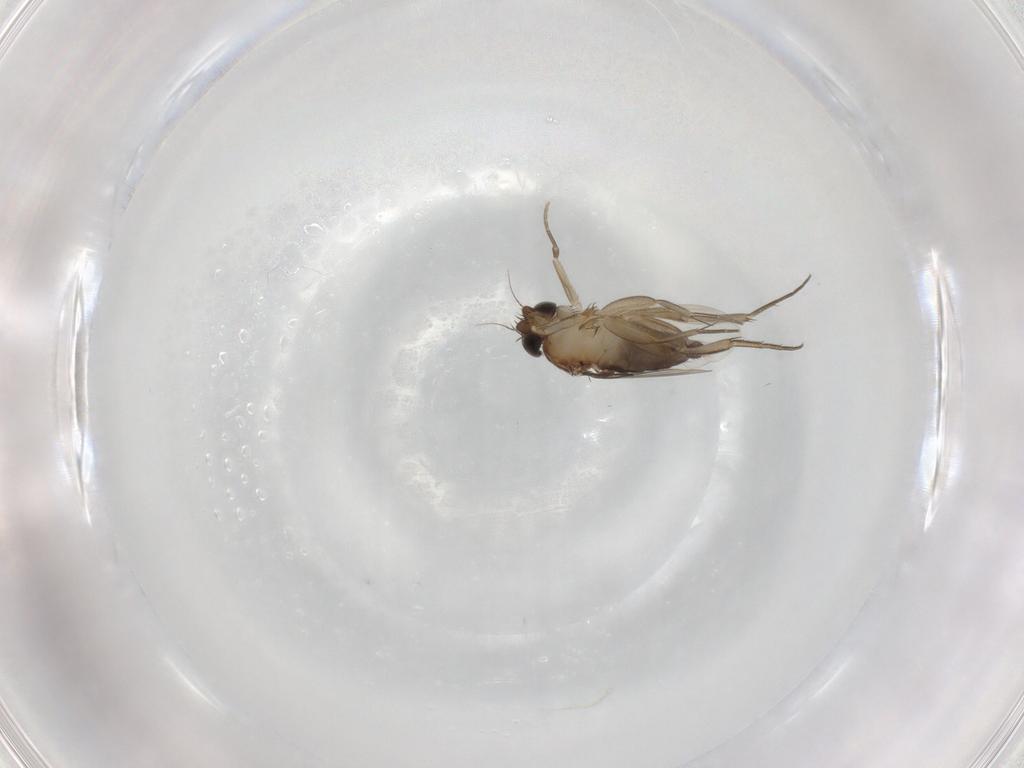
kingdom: Animalia
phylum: Arthropoda
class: Insecta
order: Diptera
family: Phoridae
